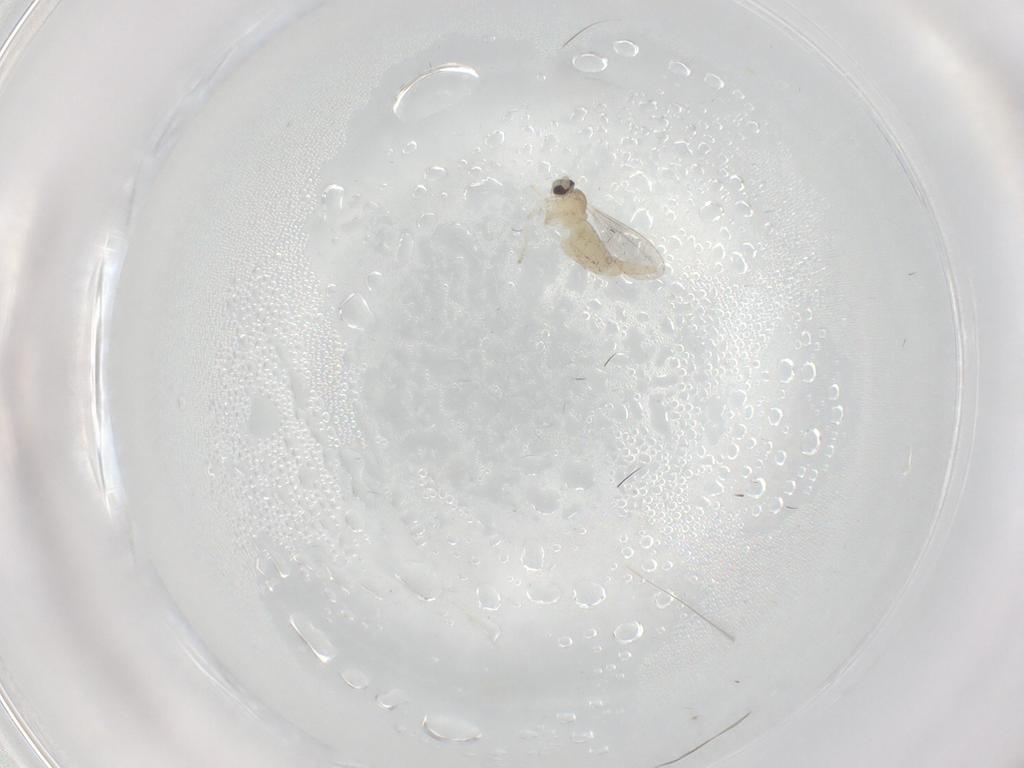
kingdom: Animalia
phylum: Arthropoda
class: Insecta
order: Diptera
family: Cecidomyiidae
